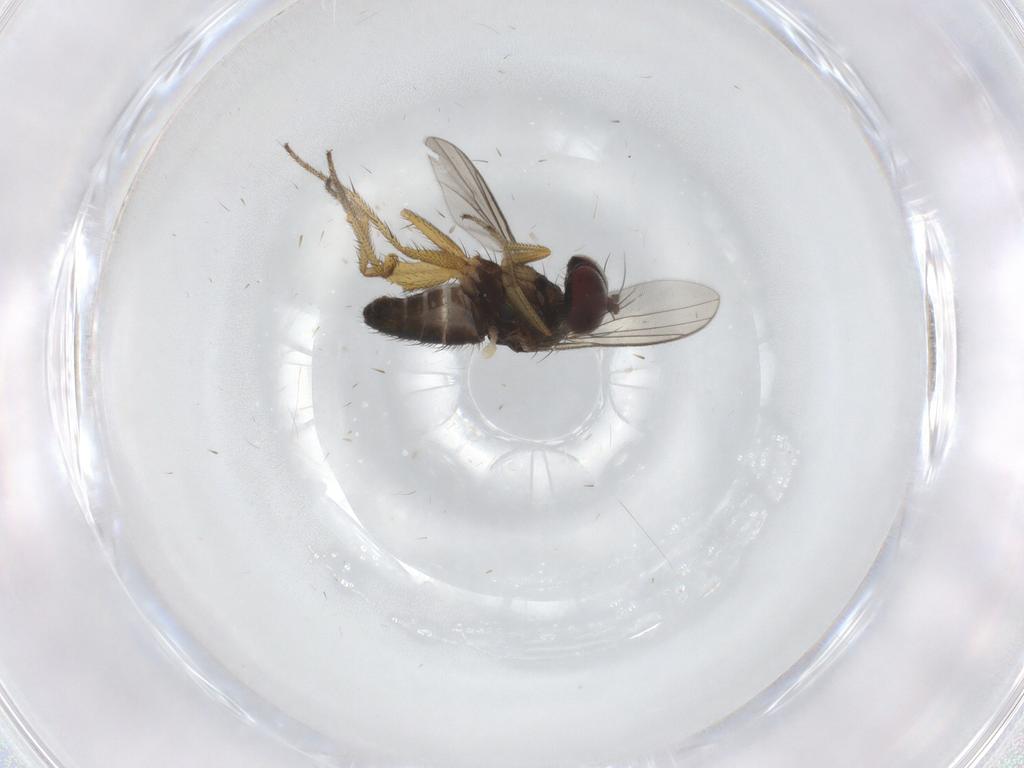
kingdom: Animalia
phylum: Arthropoda
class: Insecta
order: Diptera
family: Dolichopodidae
